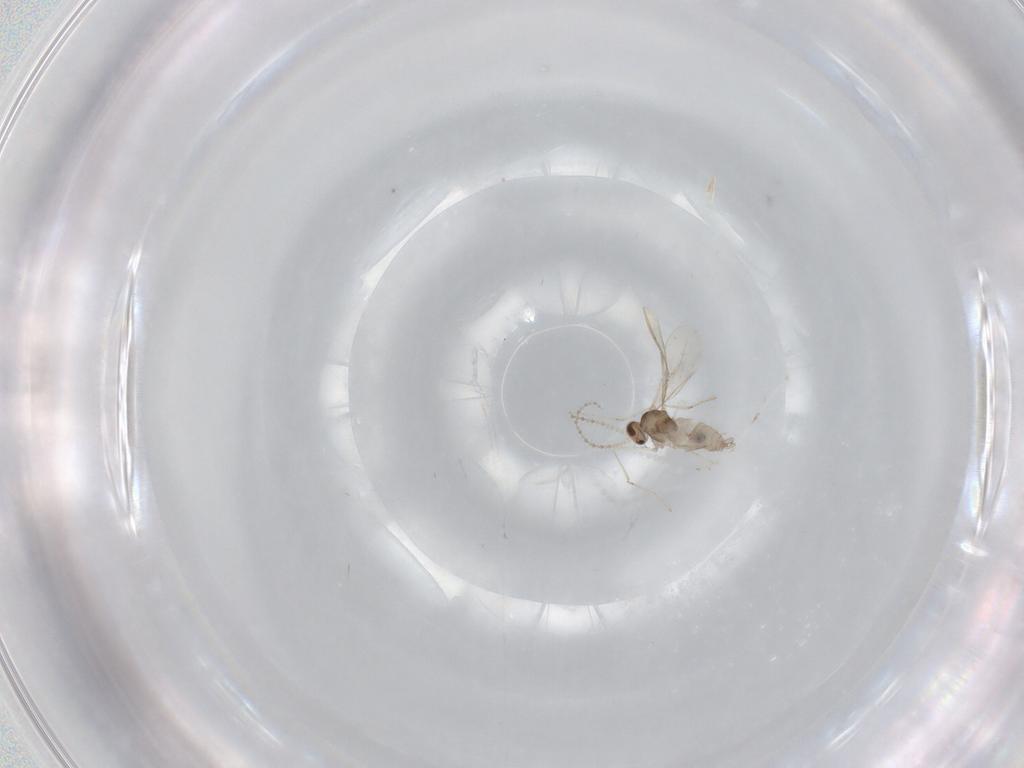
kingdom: Animalia
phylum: Arthropoda
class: Insecta
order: Diptera
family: Cecidomyiidae
